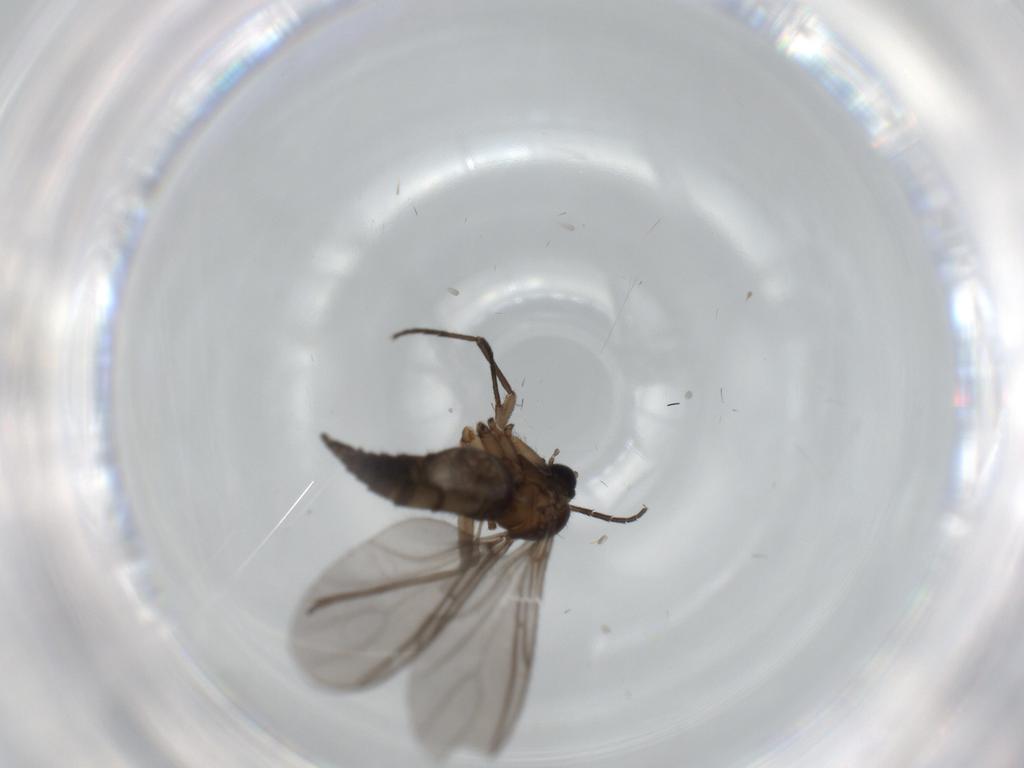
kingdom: Animalia
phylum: Arthropoda
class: Insecta
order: Diptera
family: Sciaridae
